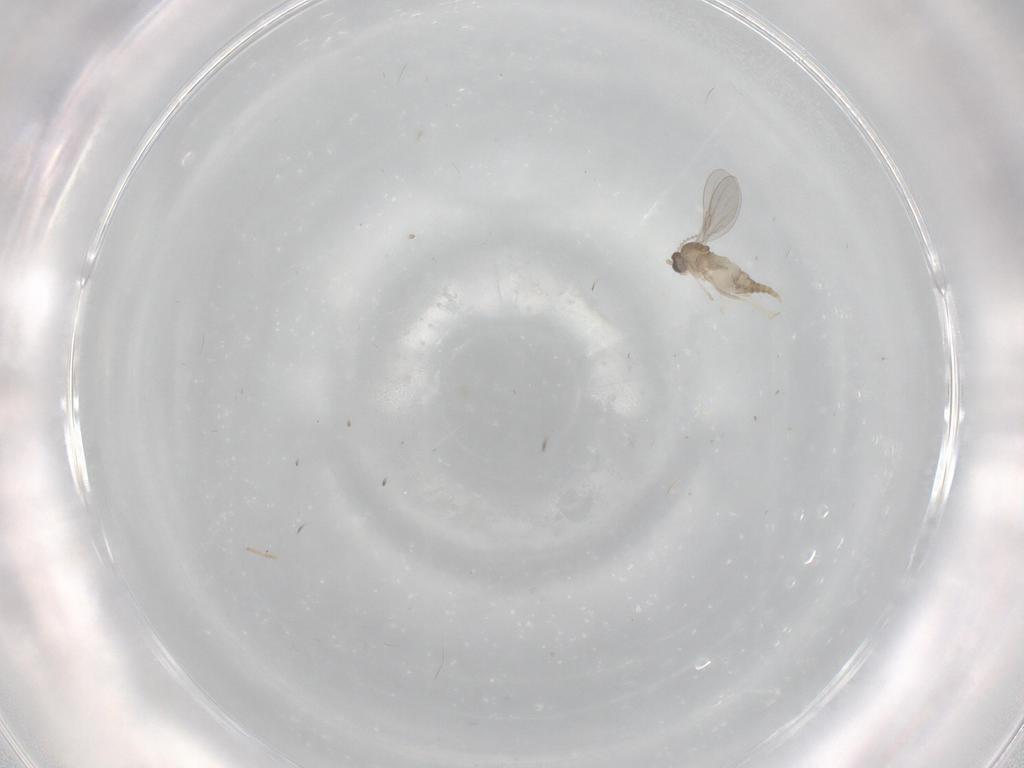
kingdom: Animalia
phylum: Arthropoda
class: Insecta
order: Diptera
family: Cecidomyiidae
